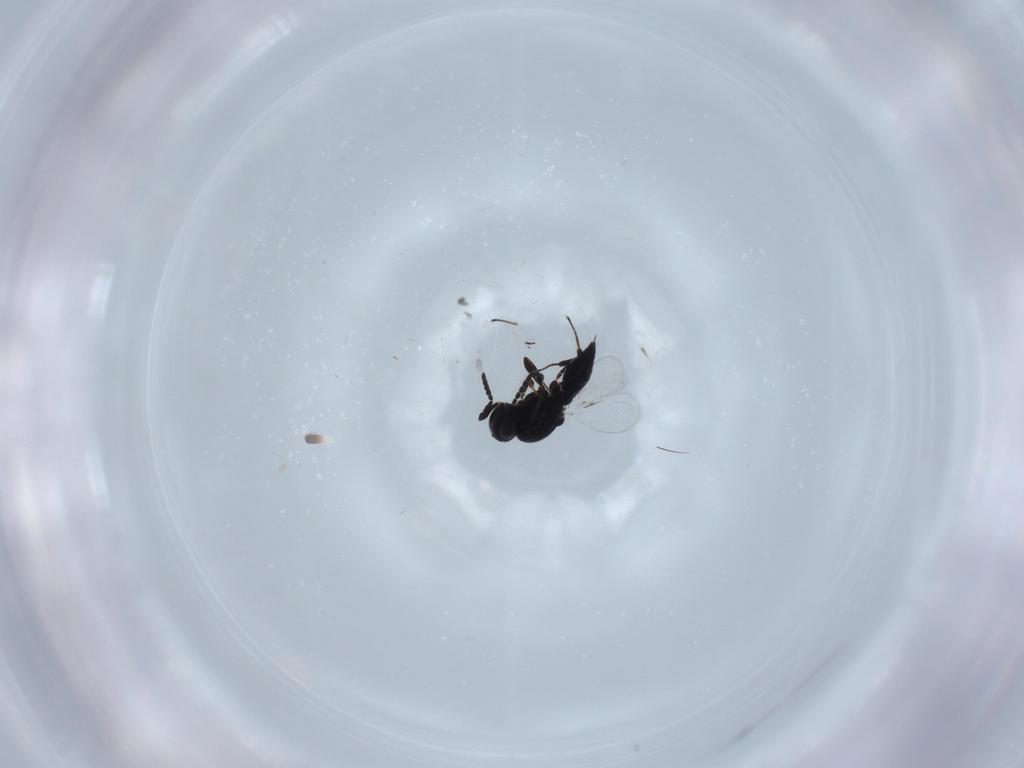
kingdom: Animalia
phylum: Arthropoda
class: Insecta
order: Hymenoptera
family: Platygastridae
